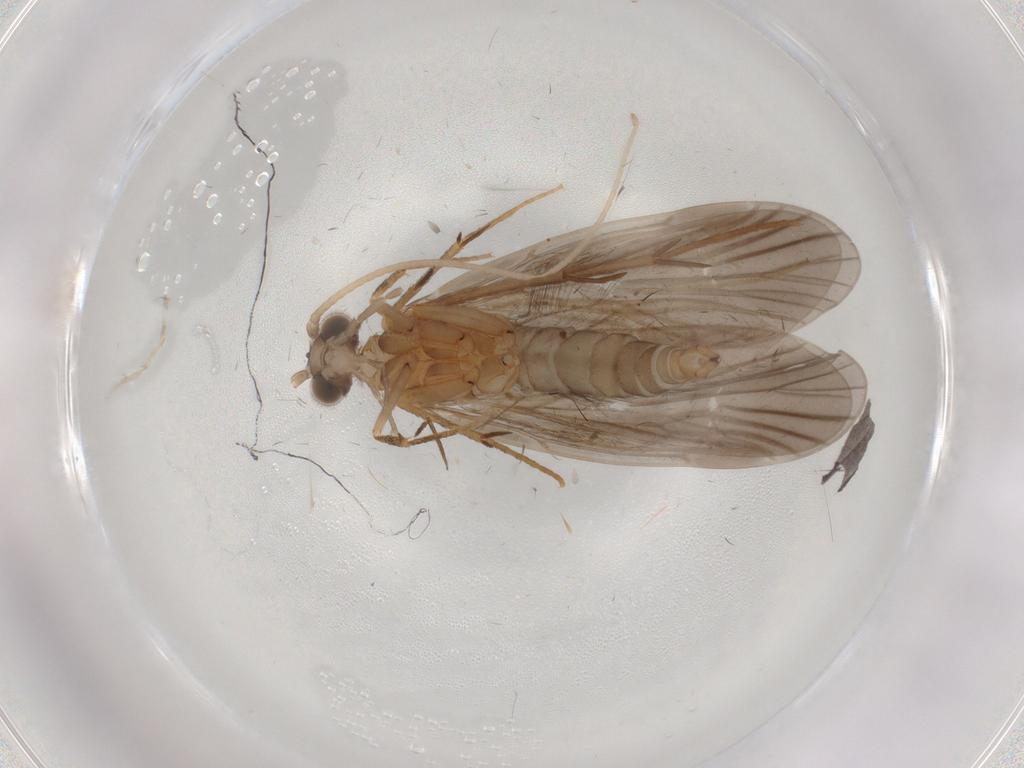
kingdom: Animalia
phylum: Arthropoda
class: Insecta
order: Trichoptera
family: Philopotamidae
